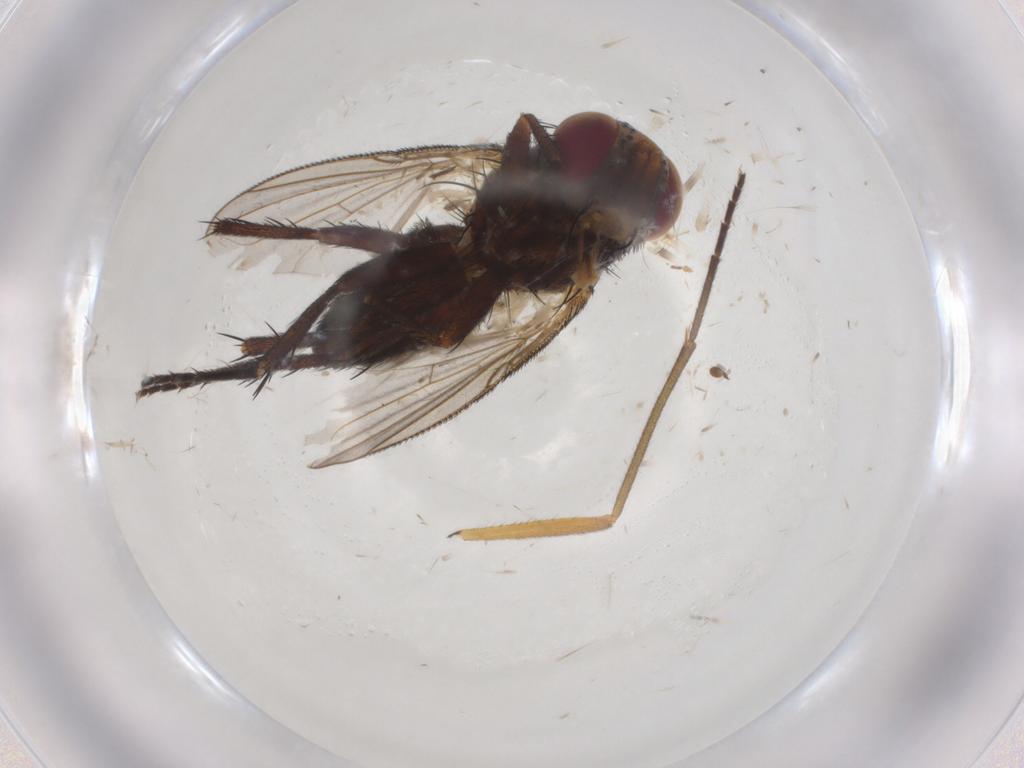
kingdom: Animalia
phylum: Arthropoda
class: Insecta
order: Diptera
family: Tachinidae
